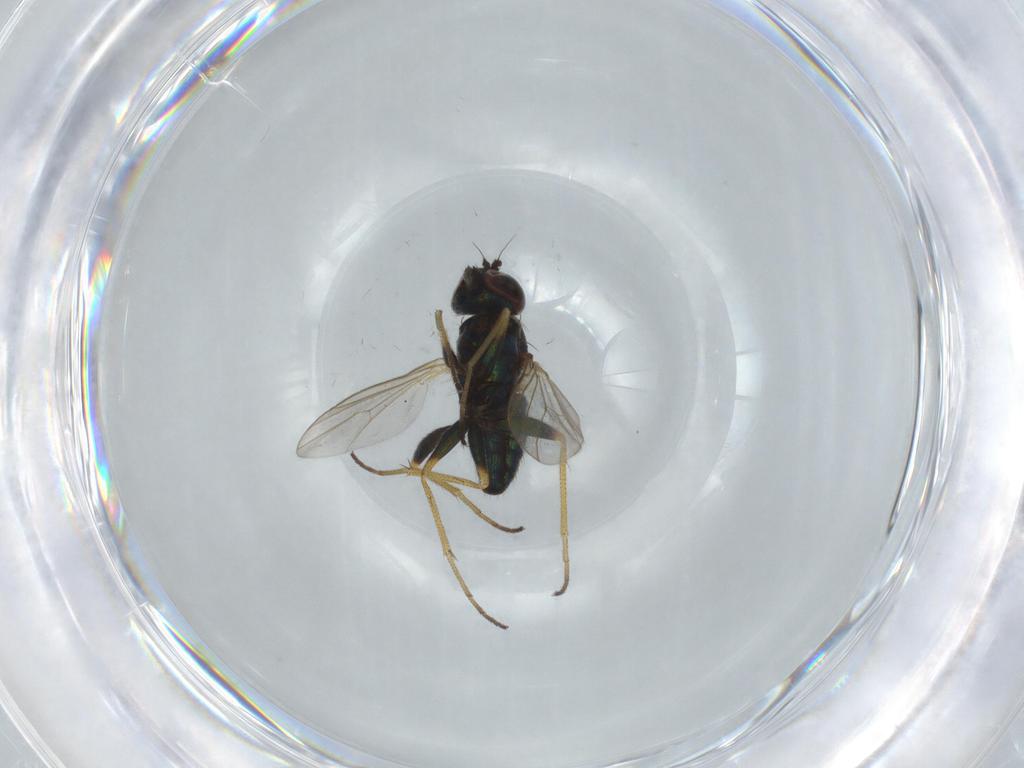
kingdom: Animalia
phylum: Arthropoda
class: Insecta
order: Diptera
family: Dolichopodidae
